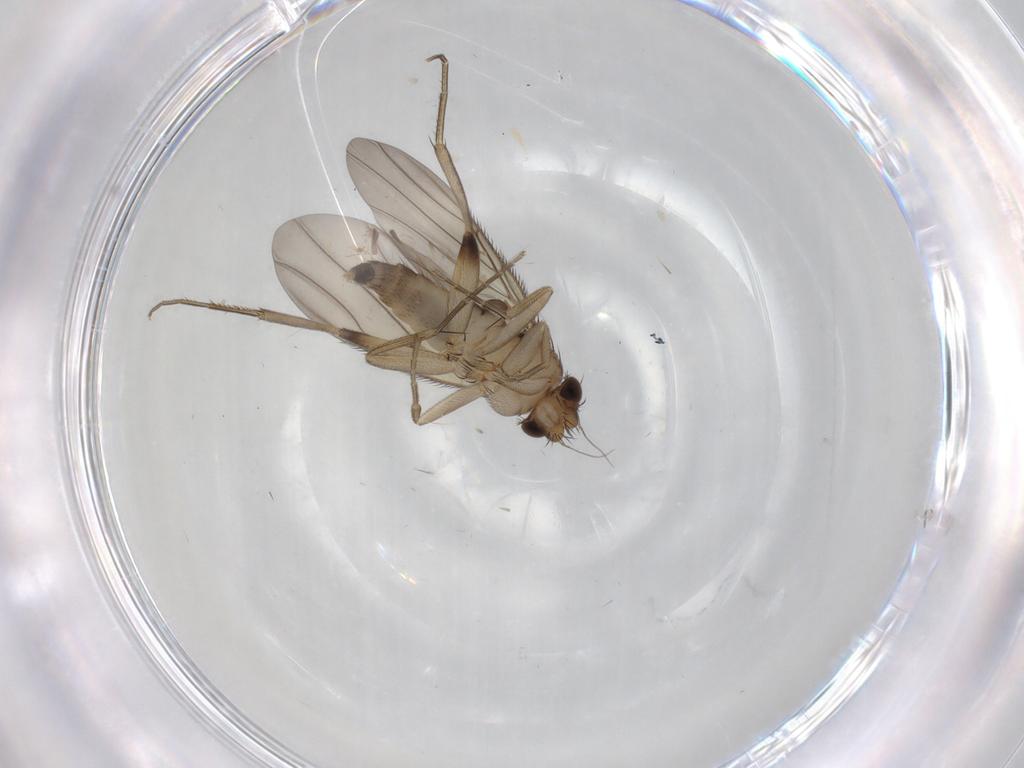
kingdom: Animalia
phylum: Arthropoda
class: Insecta
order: Diptera
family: Phoridae
